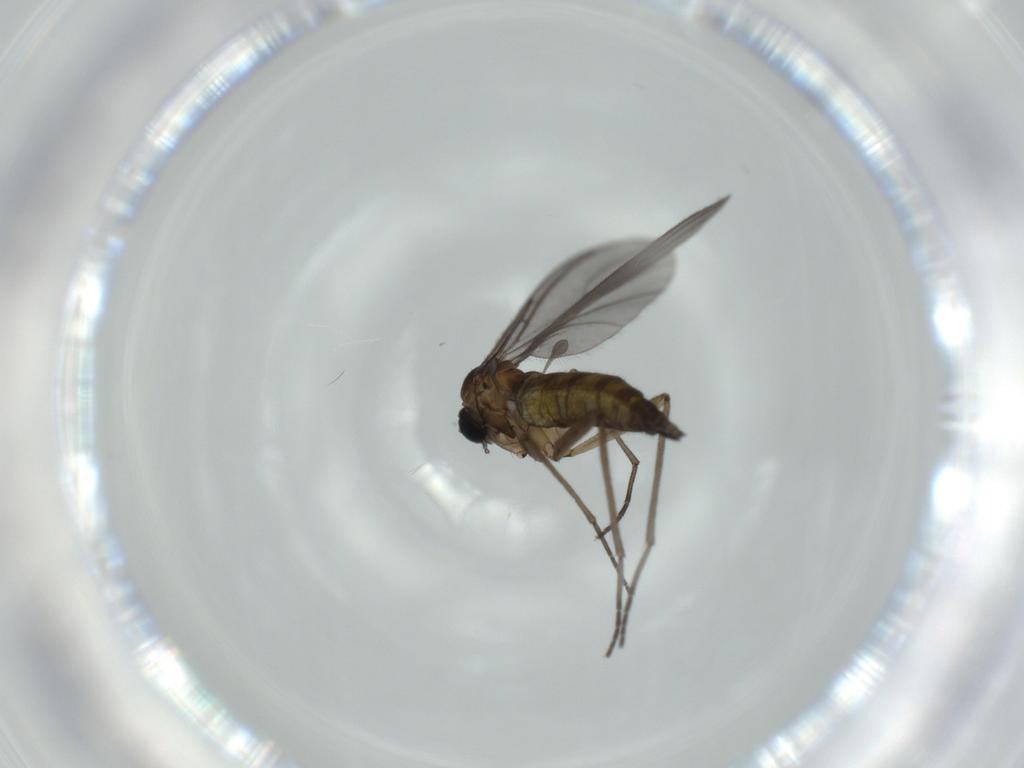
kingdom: Animalia
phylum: Arthropoda
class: Insecta
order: Diptera
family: Sciaridae
